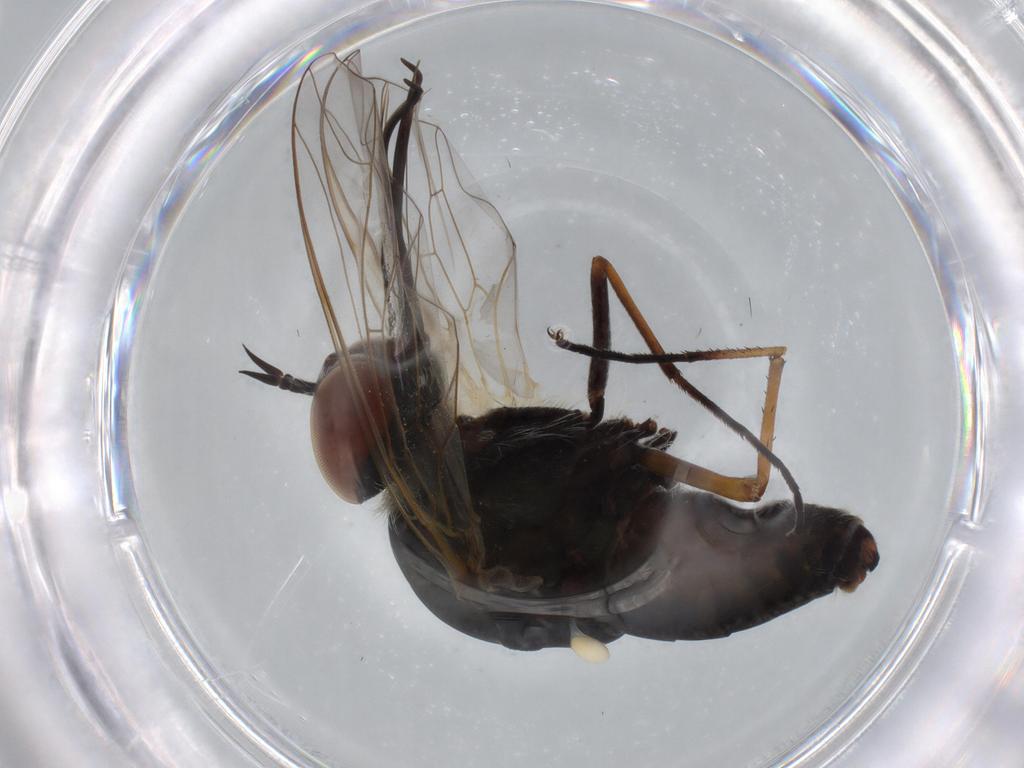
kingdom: Animalia
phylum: Arthropoda
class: Insecta
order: Diptera
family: Bombyliidae
